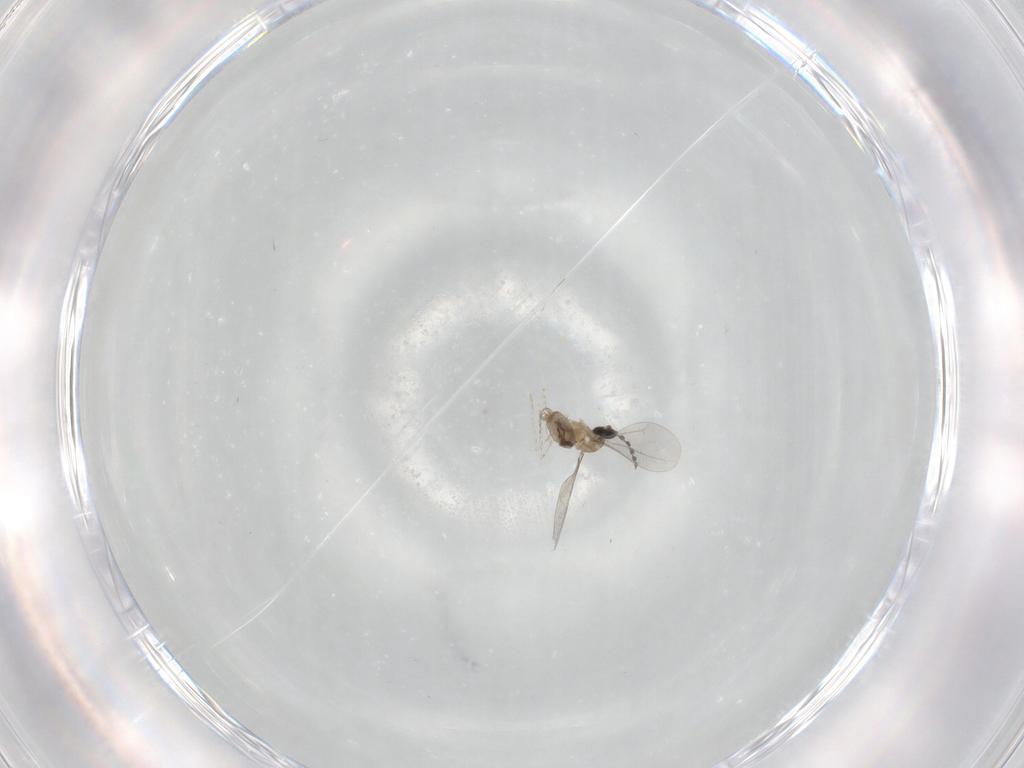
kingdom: Animalia
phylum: Arthropoda
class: Insecta
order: Diptera
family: Cecidomyiidae
